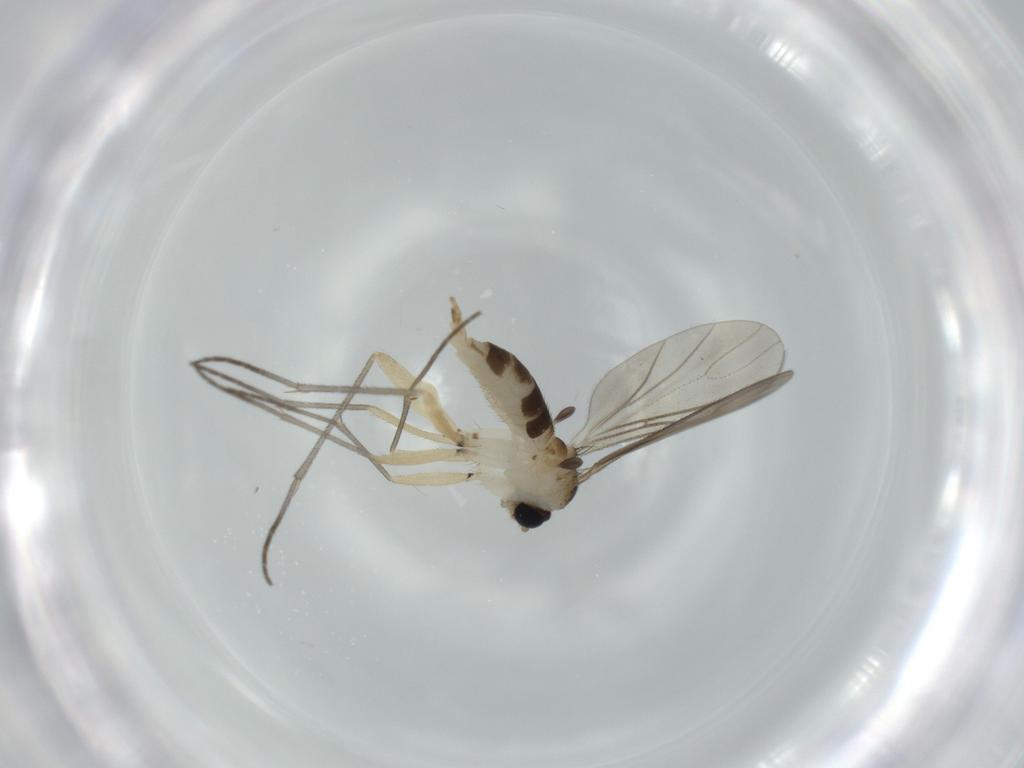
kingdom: Animalia
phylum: Arthropoda
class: Insecta
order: Diptera
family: Sciaridae
